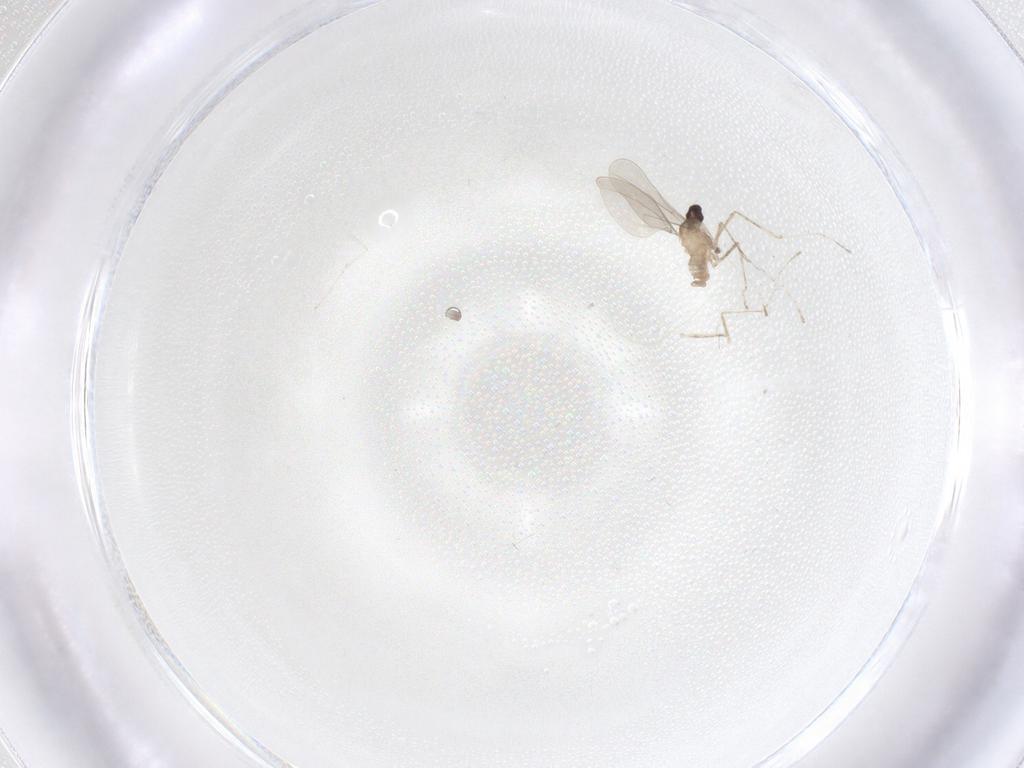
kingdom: Animalia
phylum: Arthropoda
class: Insecta
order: Diptera
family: Cecidomyiidae
